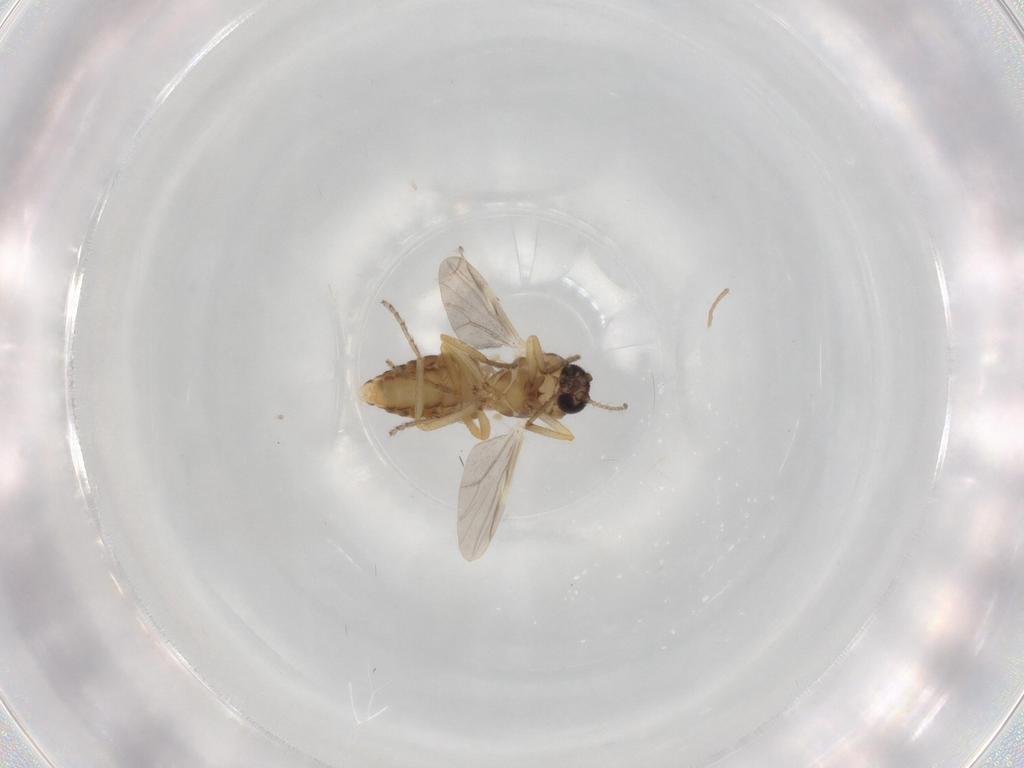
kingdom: Animalia
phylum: Arthropoda
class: Insecta
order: Diptera
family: Ceratopogonidae
